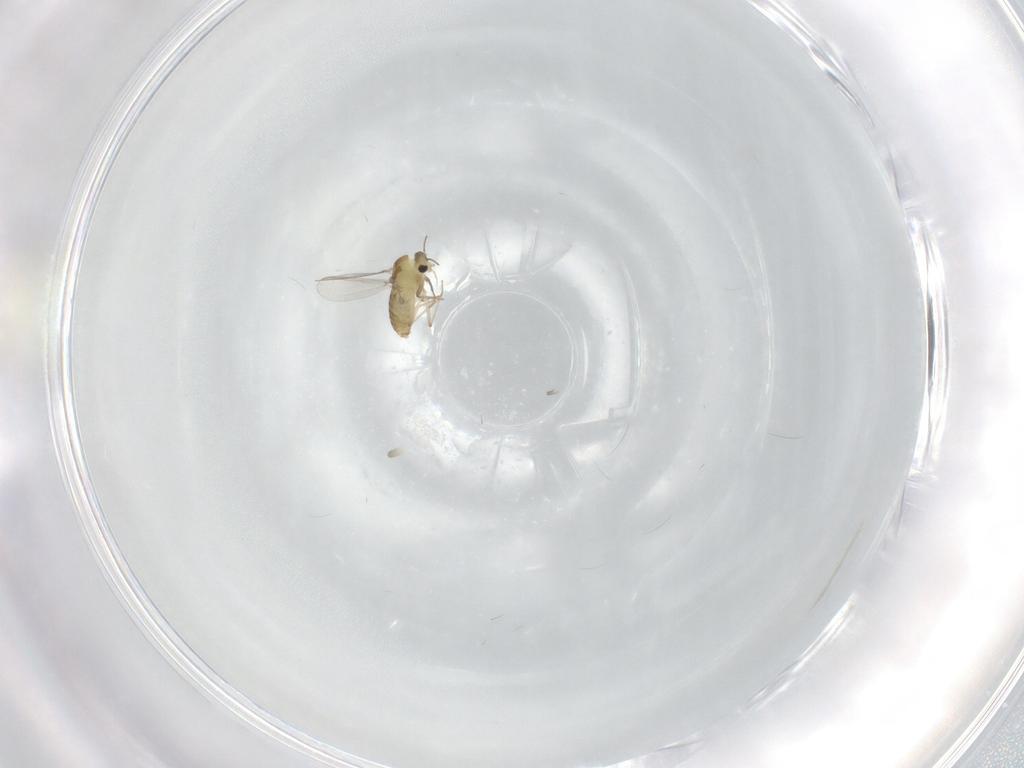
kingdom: Animalia
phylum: Arthropoda
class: Insecta
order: Diptera
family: Chironomidae
